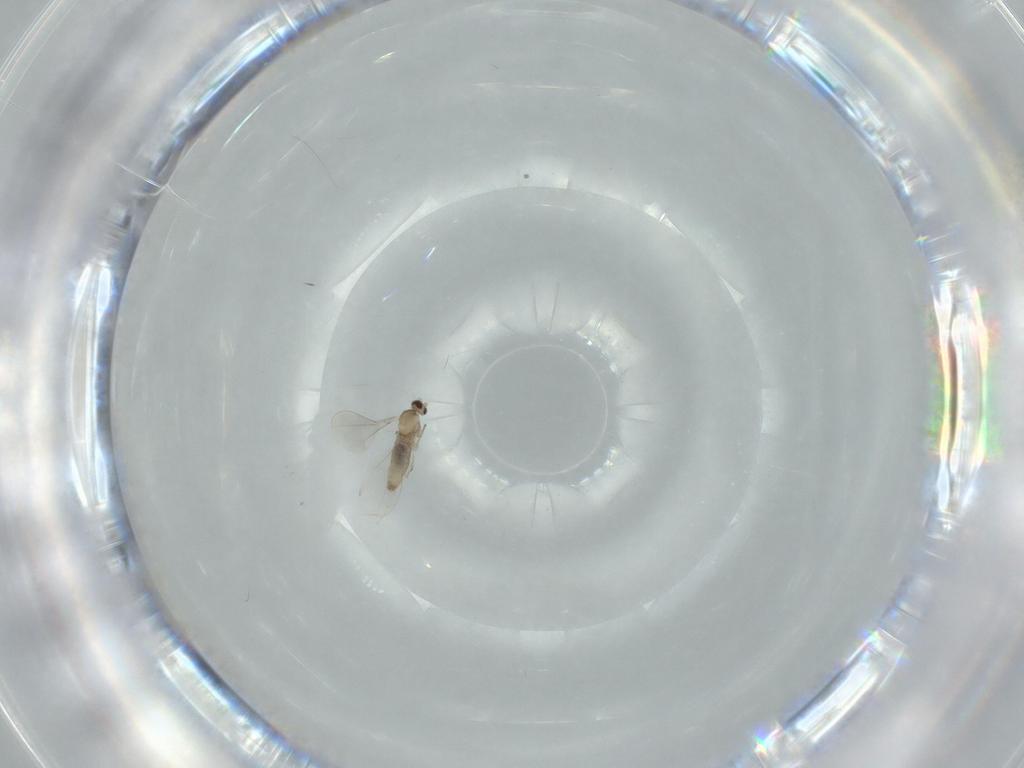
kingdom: Animalia
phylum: Arthropoda
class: Insecta
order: Diptera
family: Cecidomyiidae
